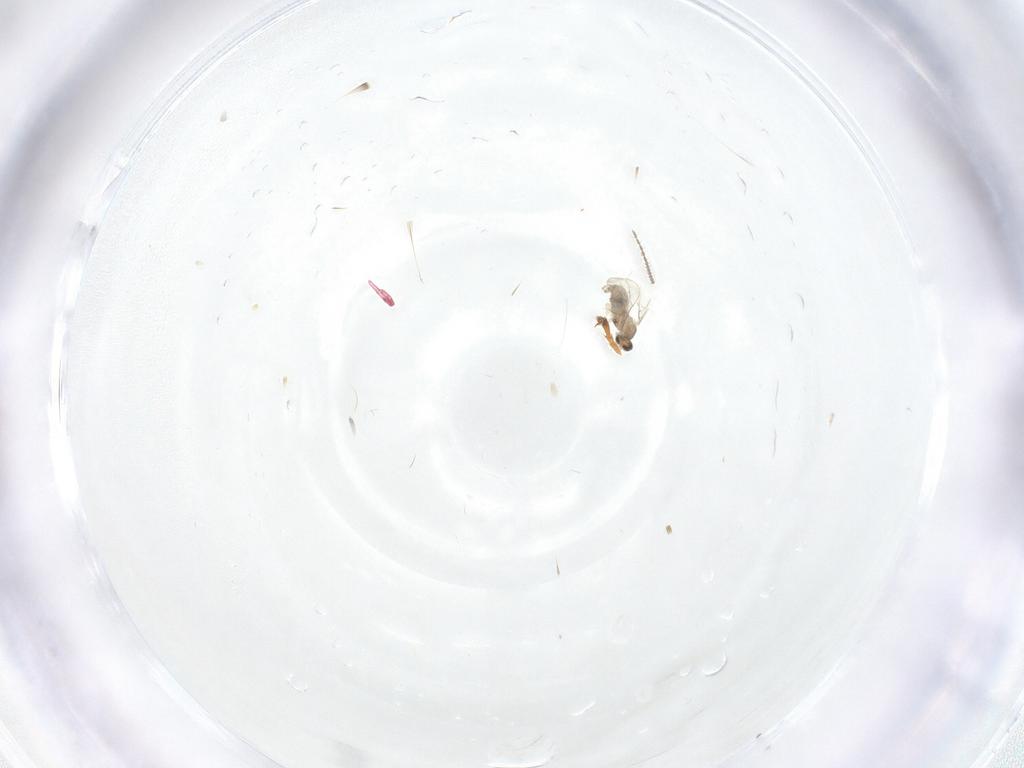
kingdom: Animalia
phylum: Arthropoda
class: Insecta
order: Diptera
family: Cecidomyiidae
